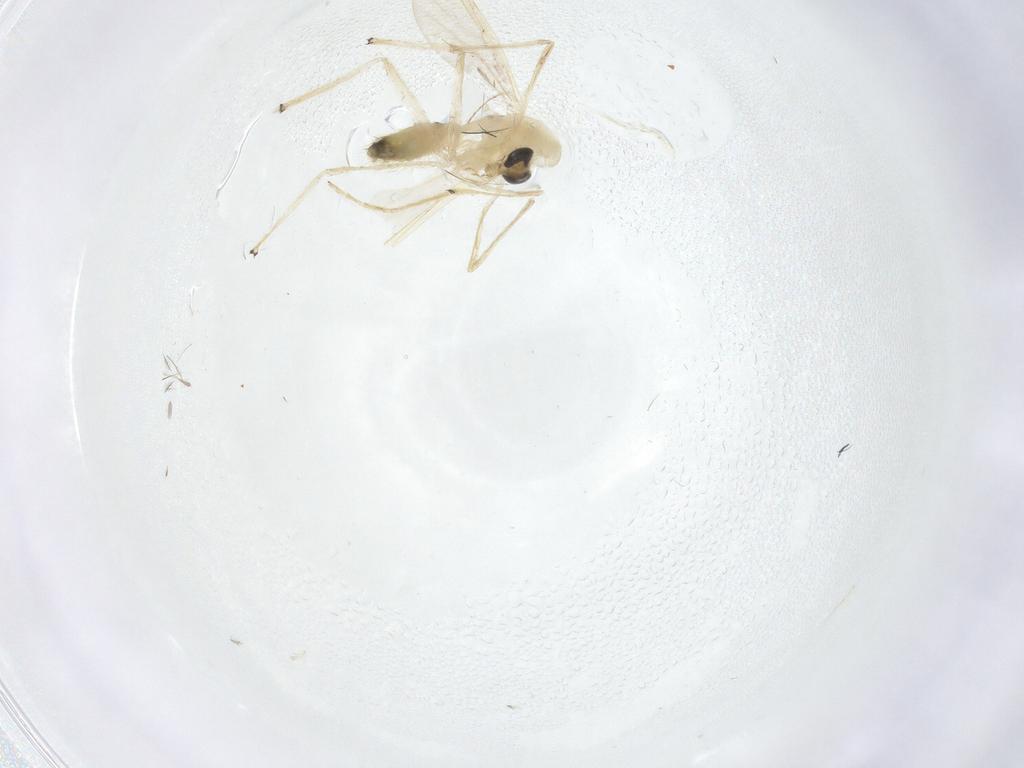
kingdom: Animalia
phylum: Arthropoda
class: Insecta
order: Diptera
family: Chironomidae
